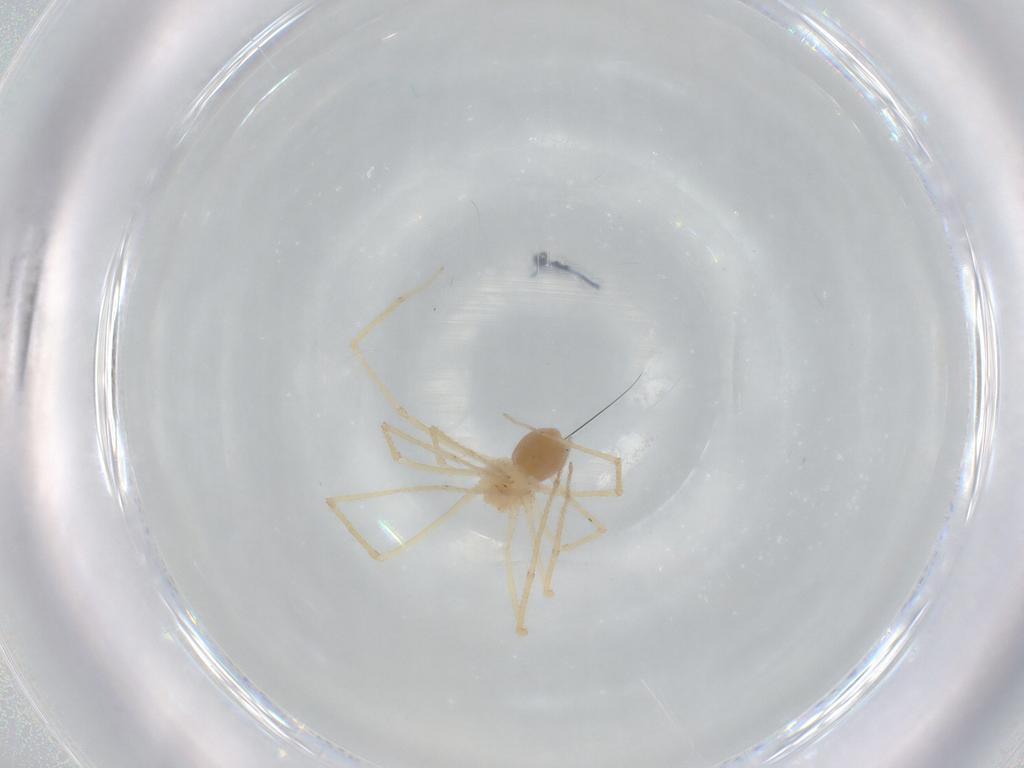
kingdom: Animalia
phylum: Arthropoda
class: Arachnida
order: Araneae
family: Pholcidae
